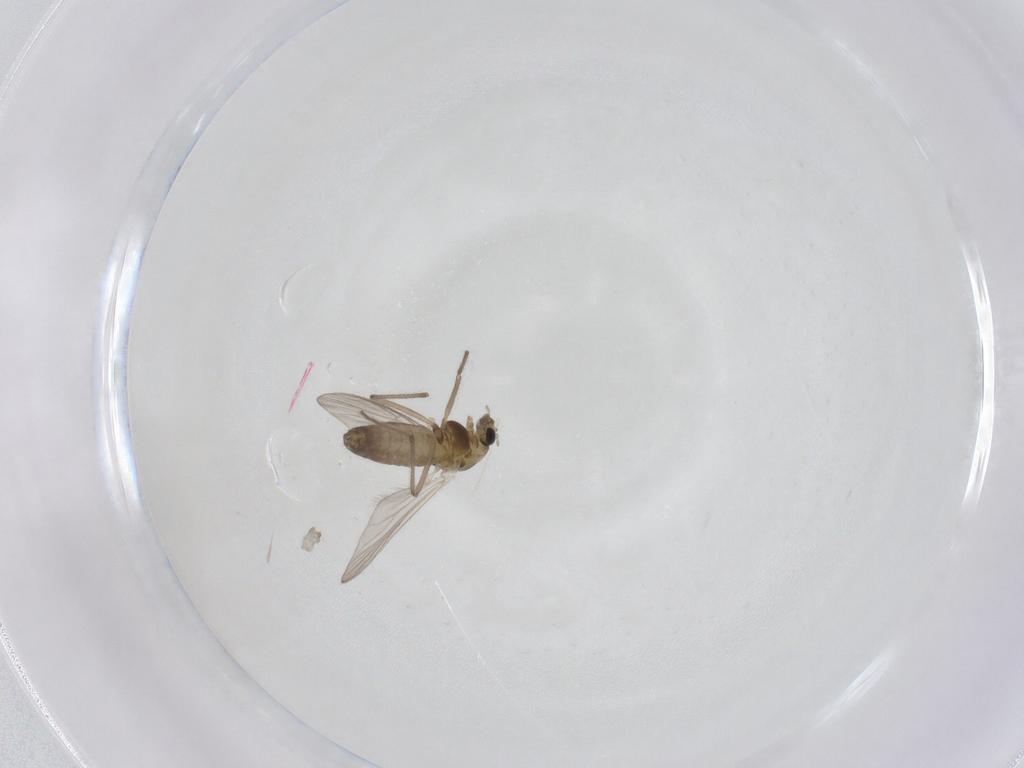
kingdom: Animalia
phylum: Arthropoda
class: Insecta
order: Diptera
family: Chironomidae
